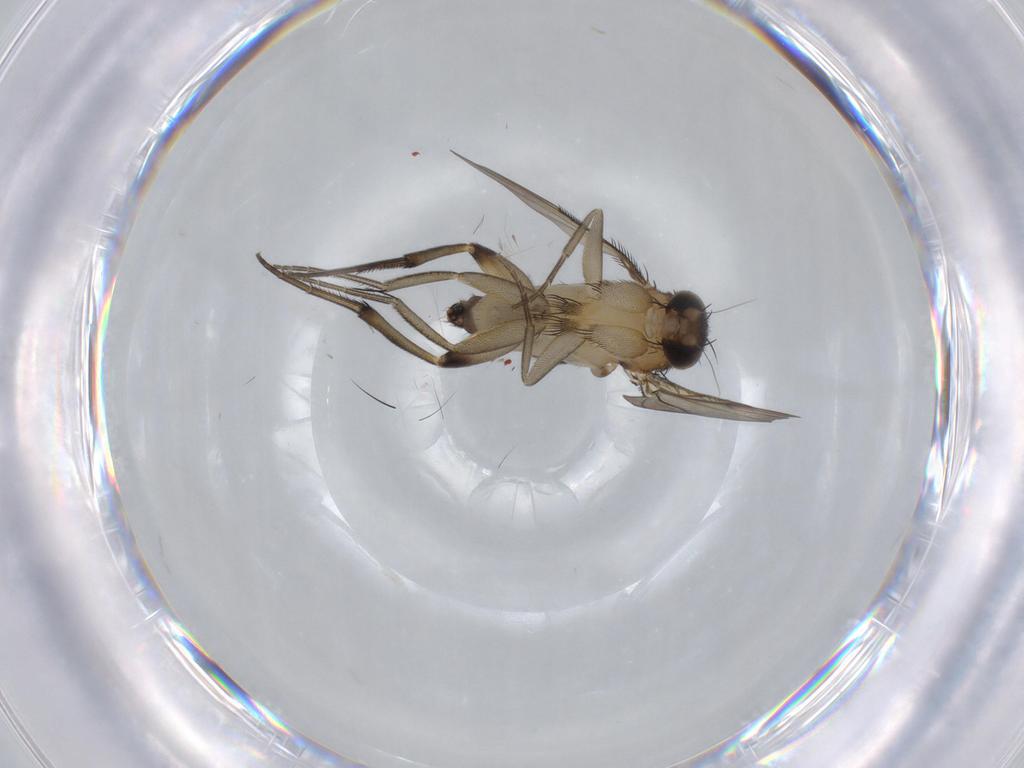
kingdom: Animalia
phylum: Arthropoda
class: Insecta
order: Diptera
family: Phoridae
